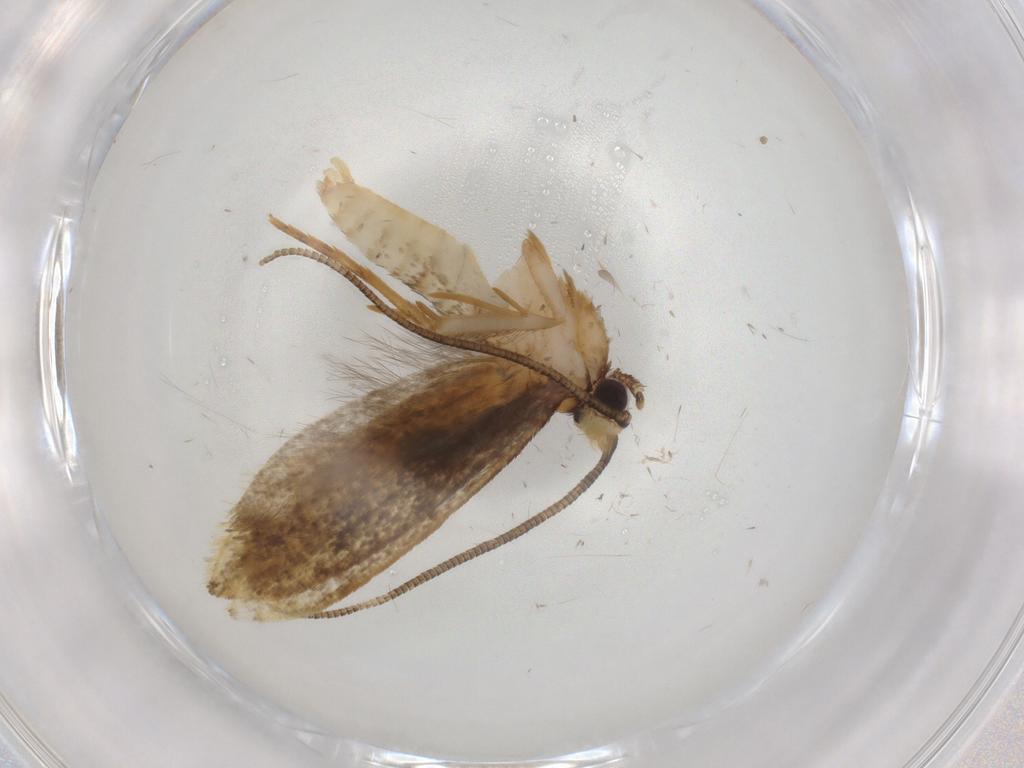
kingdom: Animalia
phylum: Arthropoda
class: Insecta
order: Lepidoptera
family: Tineidae
